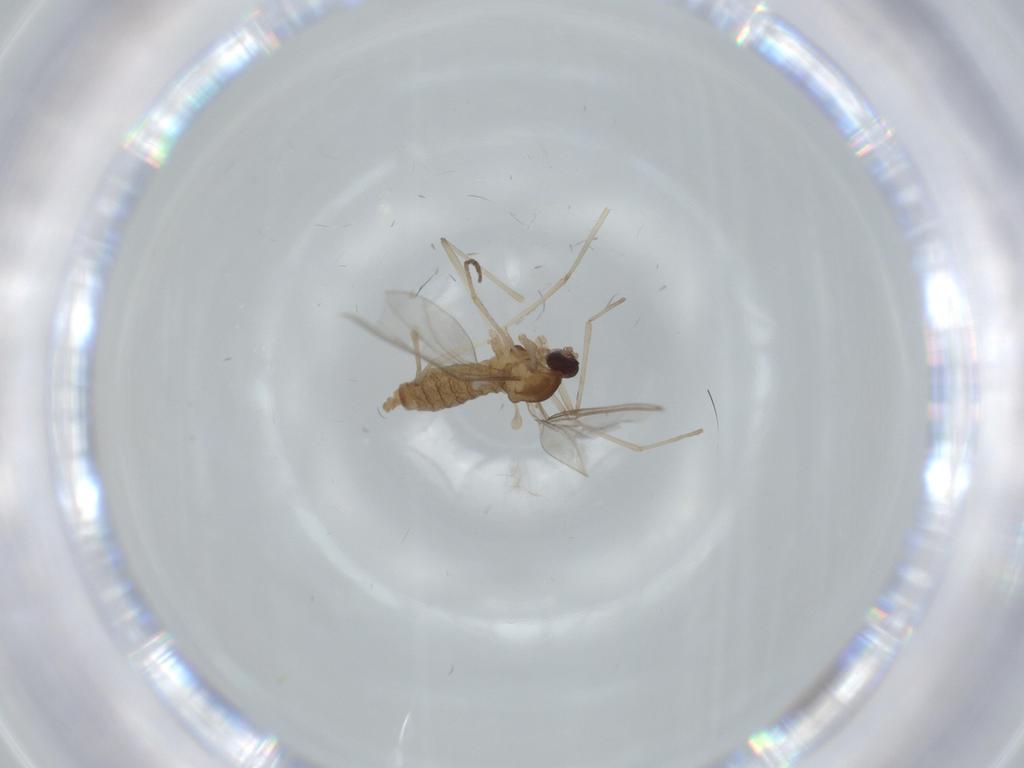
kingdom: Animalia
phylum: Arthropoda
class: Insecta
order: Diptera
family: Cecidomyiidae
